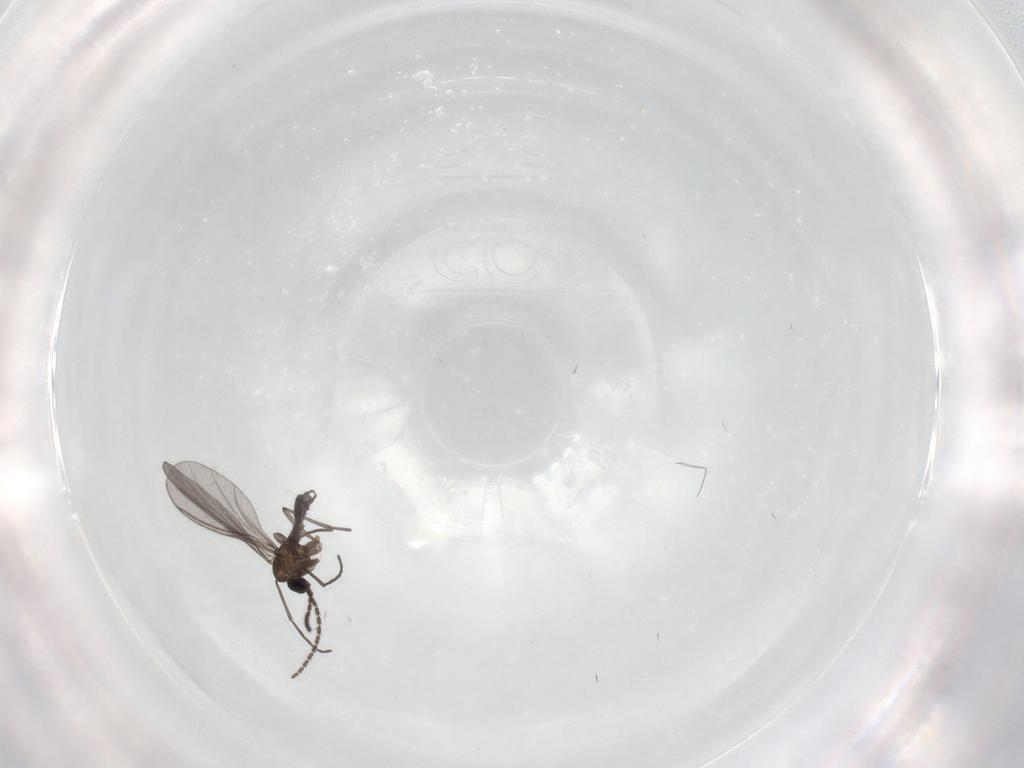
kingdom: Animalia
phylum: Arthropoda
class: Insecta
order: Diptera
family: Sciaridae
